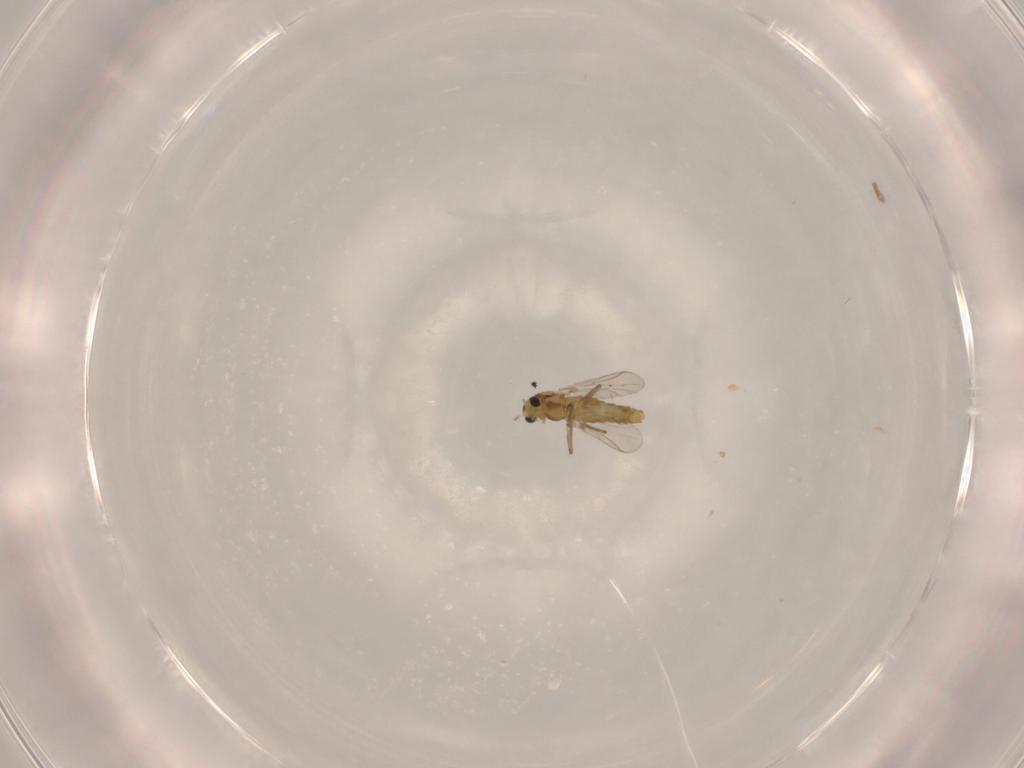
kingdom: Animalia
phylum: Arthropoda
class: Insecta
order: Diptera
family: Chironomidae
